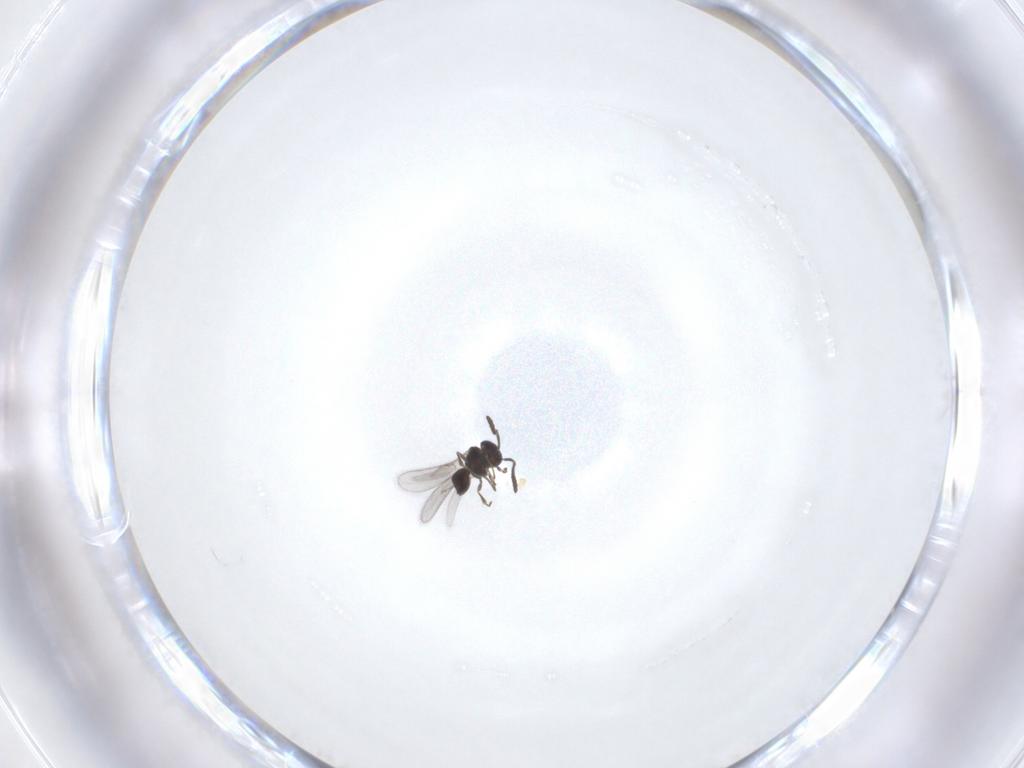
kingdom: Animalia
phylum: Arthropoda
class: Insecta
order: Hymenoptera
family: Scelionidae
